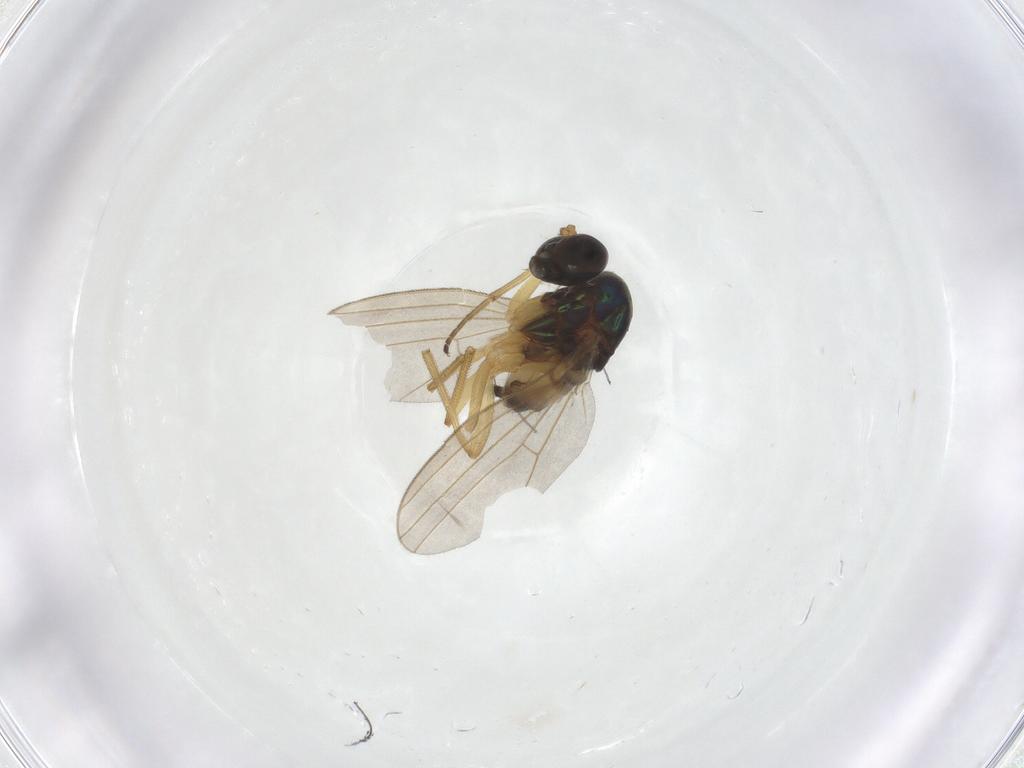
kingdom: Animalia
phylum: Arthropoda
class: Insecta
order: Diptera
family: Dolichopodidae
